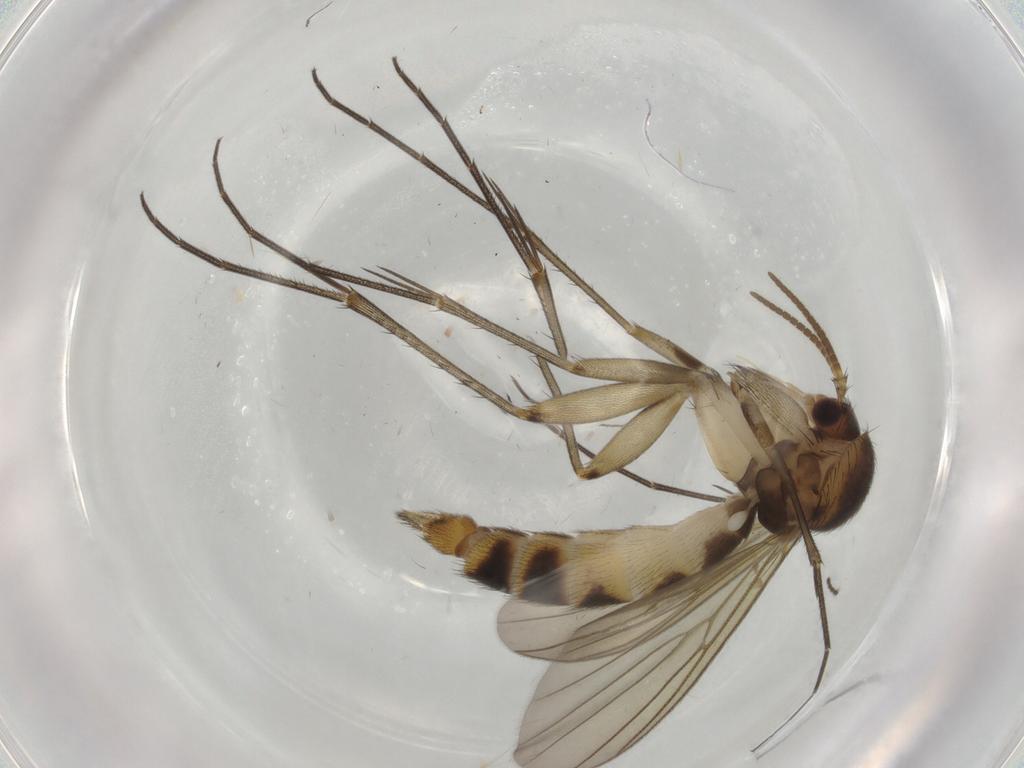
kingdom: Animalia
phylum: Arthropoda
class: Insecta
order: Diptera
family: Mycetophilidae
